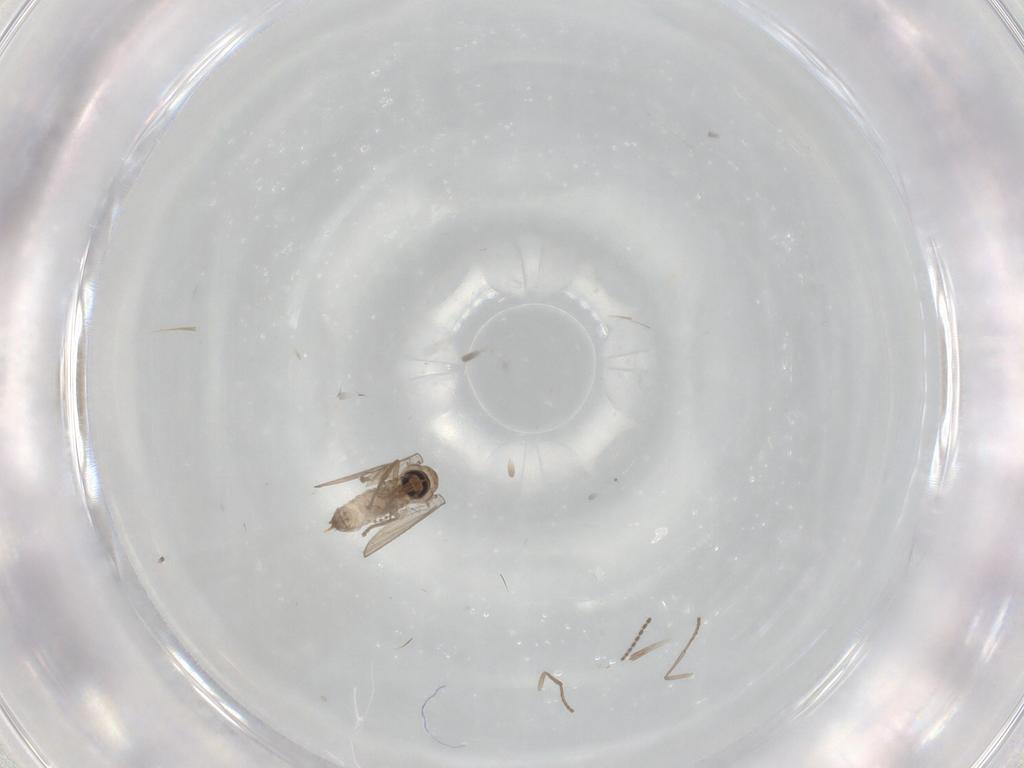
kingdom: Animalia
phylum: Arthropoda
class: Insecta
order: Diptera
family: Psychodidae
